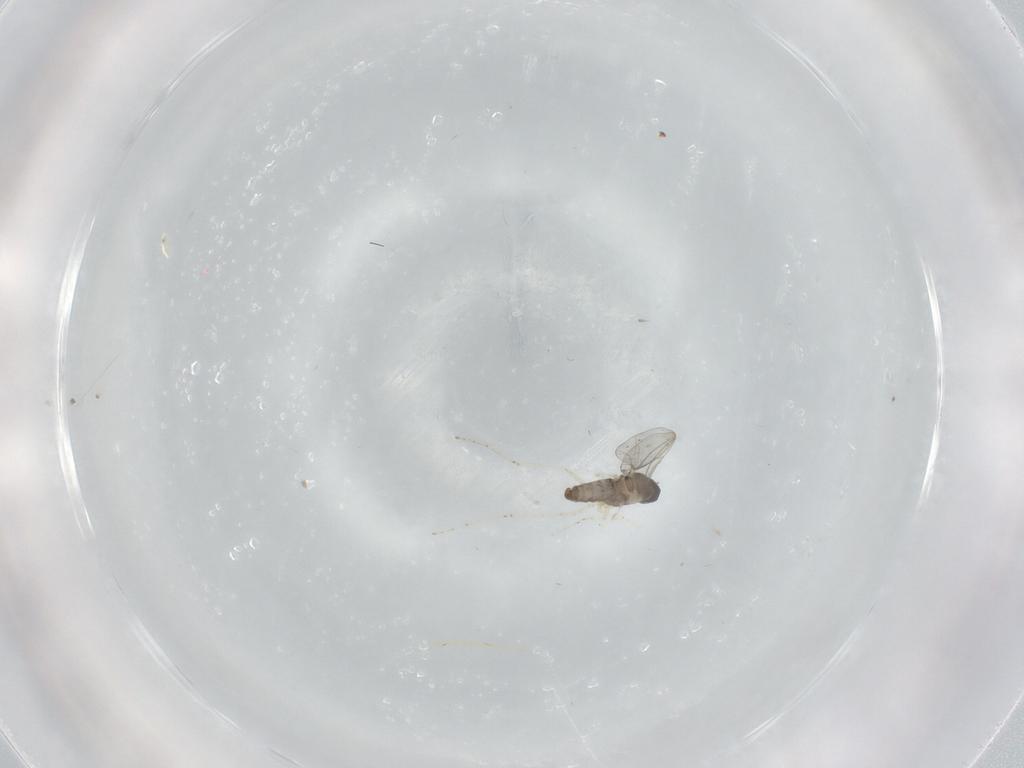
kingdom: Animalia
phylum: Arthropoda
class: Insecta
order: Diptera
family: Cecidomyiidae
